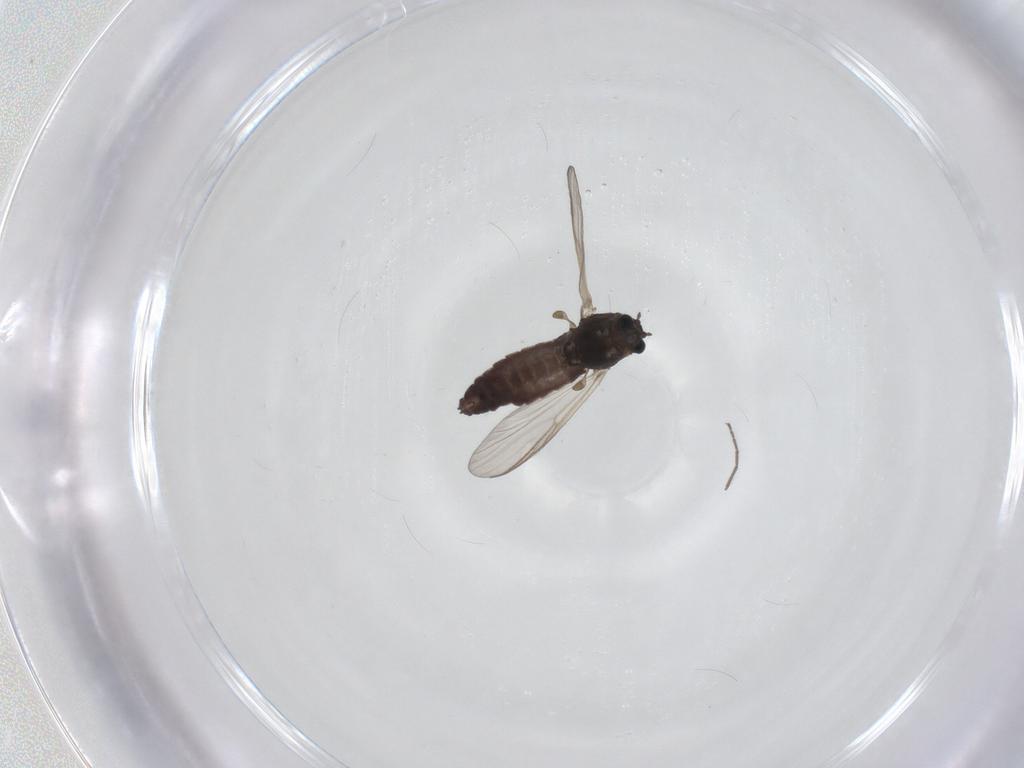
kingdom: Animalia
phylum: Arthropoda
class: Insecta
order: Diptera
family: Chironomidae
